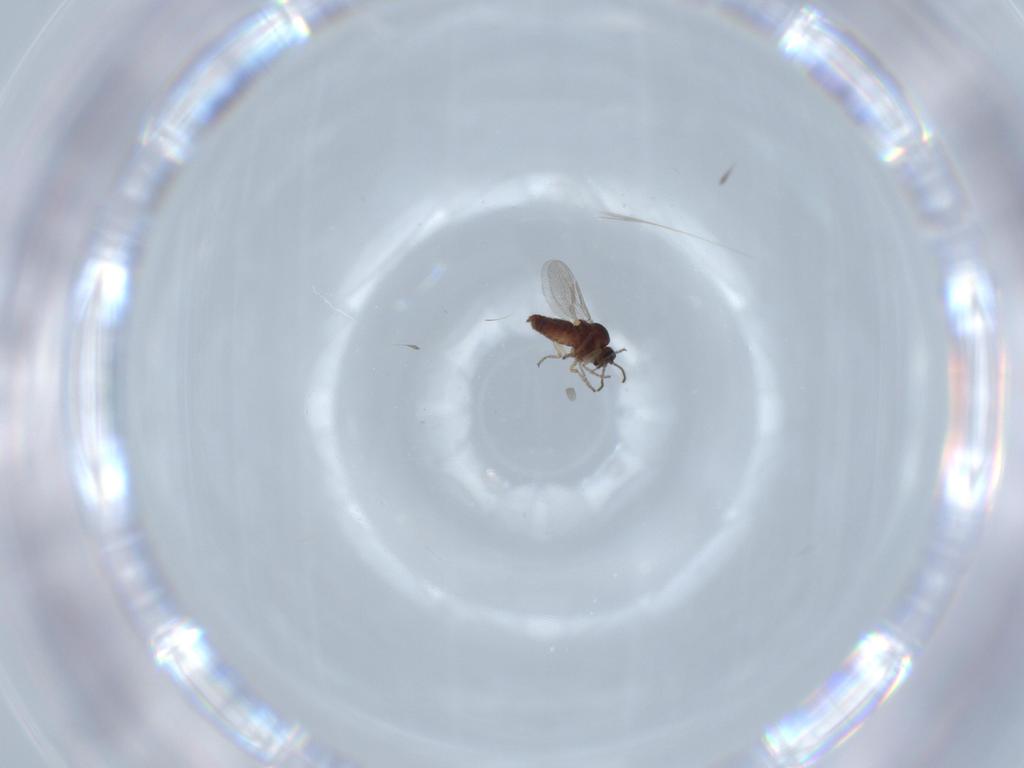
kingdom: Animalia
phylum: Arthropoda
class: Insecta
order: Diptera
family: Ceratopogonidae
